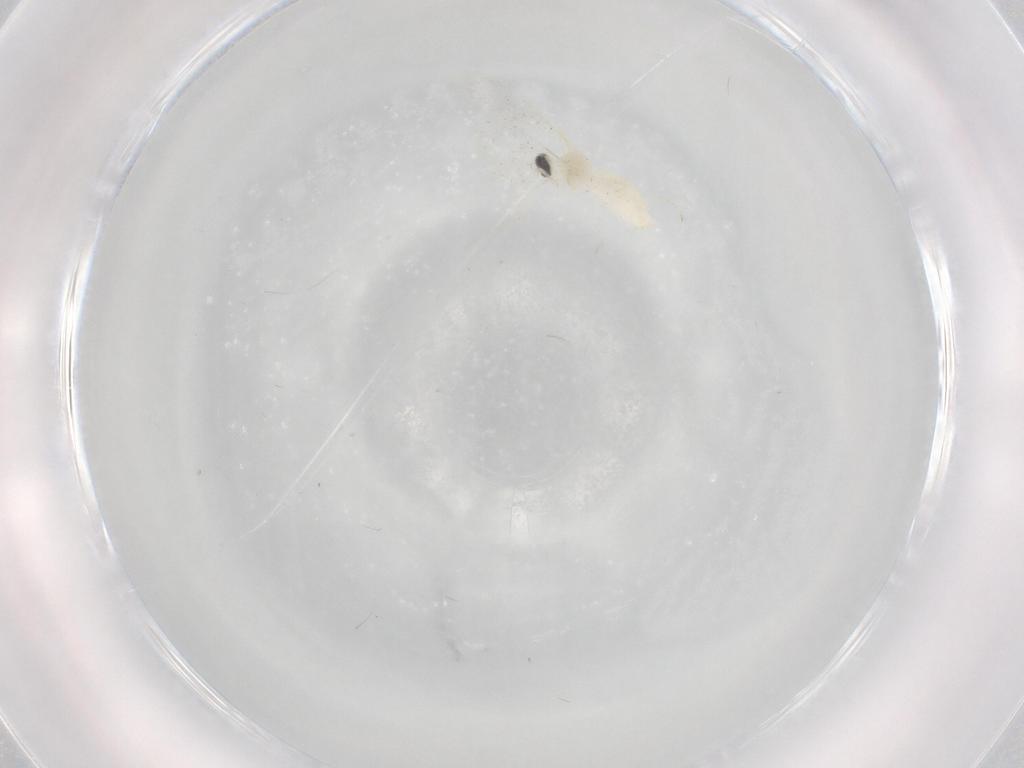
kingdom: Animalia
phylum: Arthropoda
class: Insecta
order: Diptera
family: Cecidomyiidae
